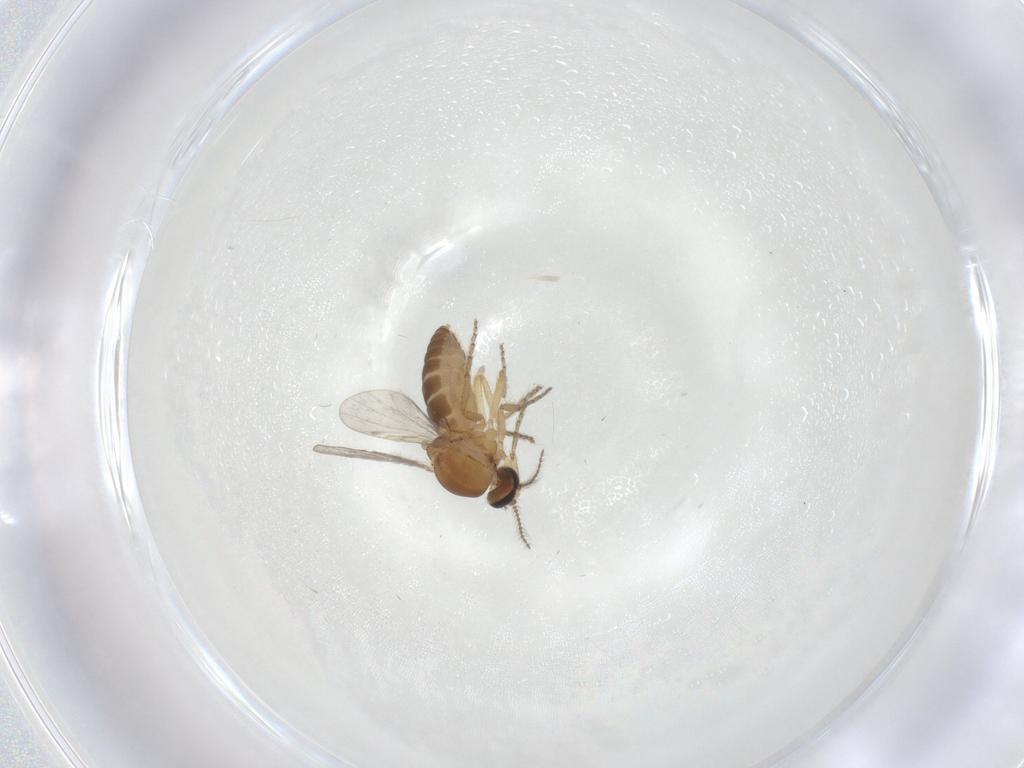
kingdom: Animalia
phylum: Arthropoda
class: Insecta
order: Diptera
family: Ceratopogonidae
